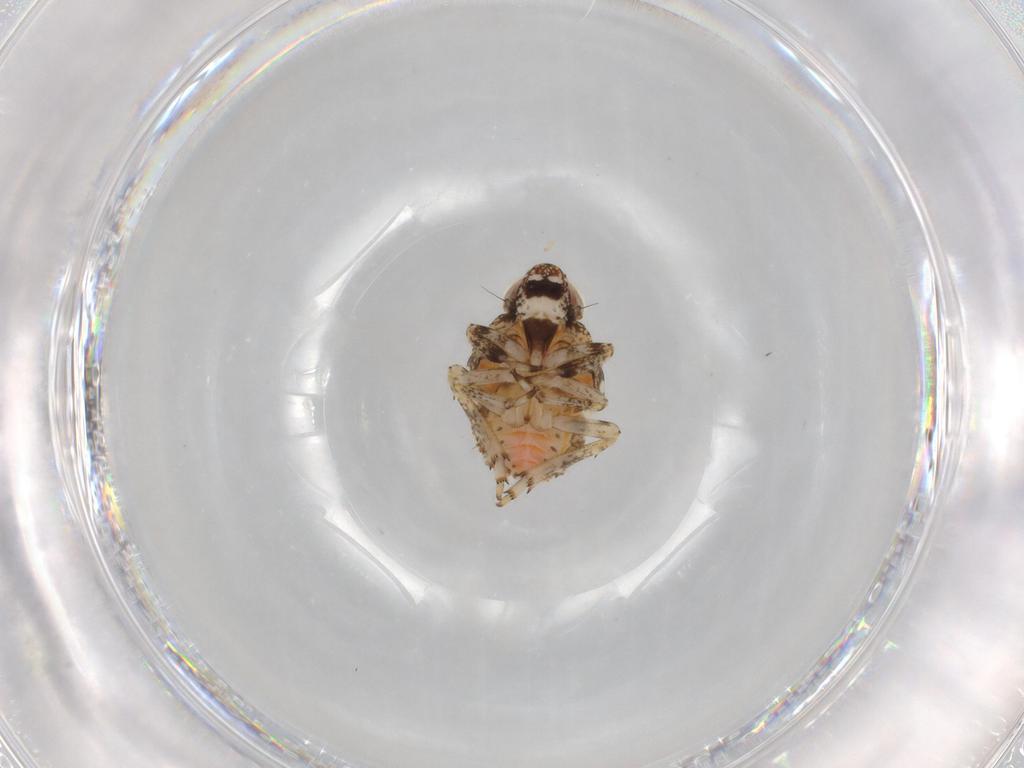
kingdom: Animalia
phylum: Arthropoda
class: Insecta
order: Hemiptera
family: Issidae
